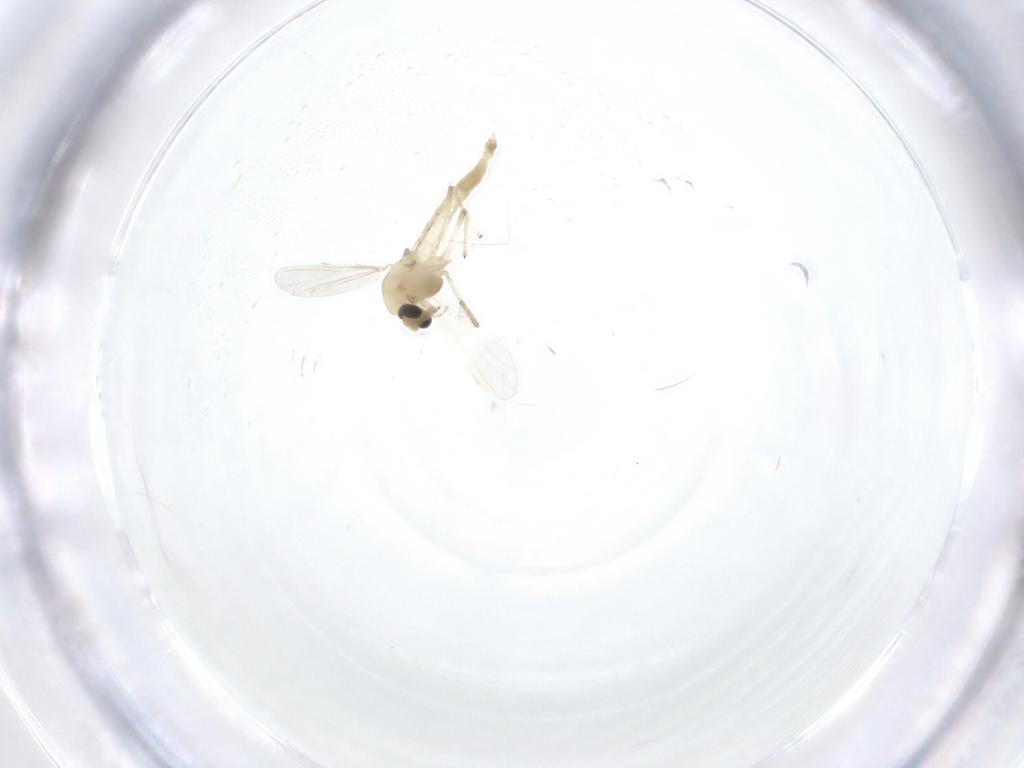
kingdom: Animalia
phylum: Arthropoda
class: Insecta
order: Diptera
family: Chironomidae
